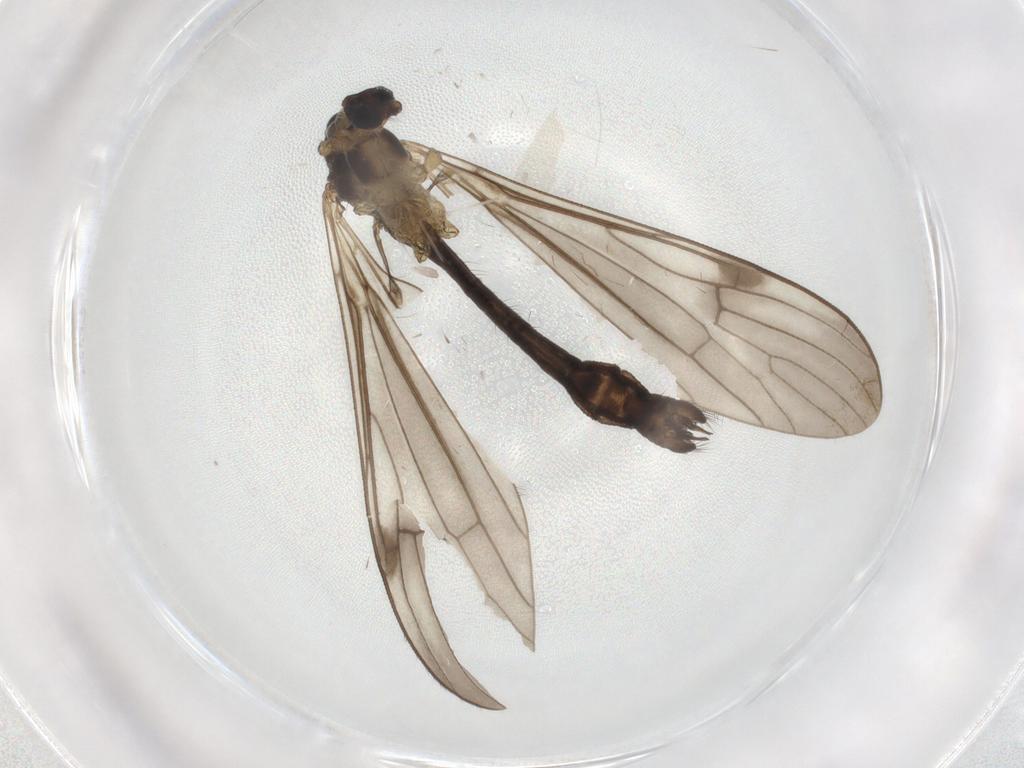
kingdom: Animalia
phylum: Arthropoda
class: Insecta
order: Diptera
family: Limoniidae
